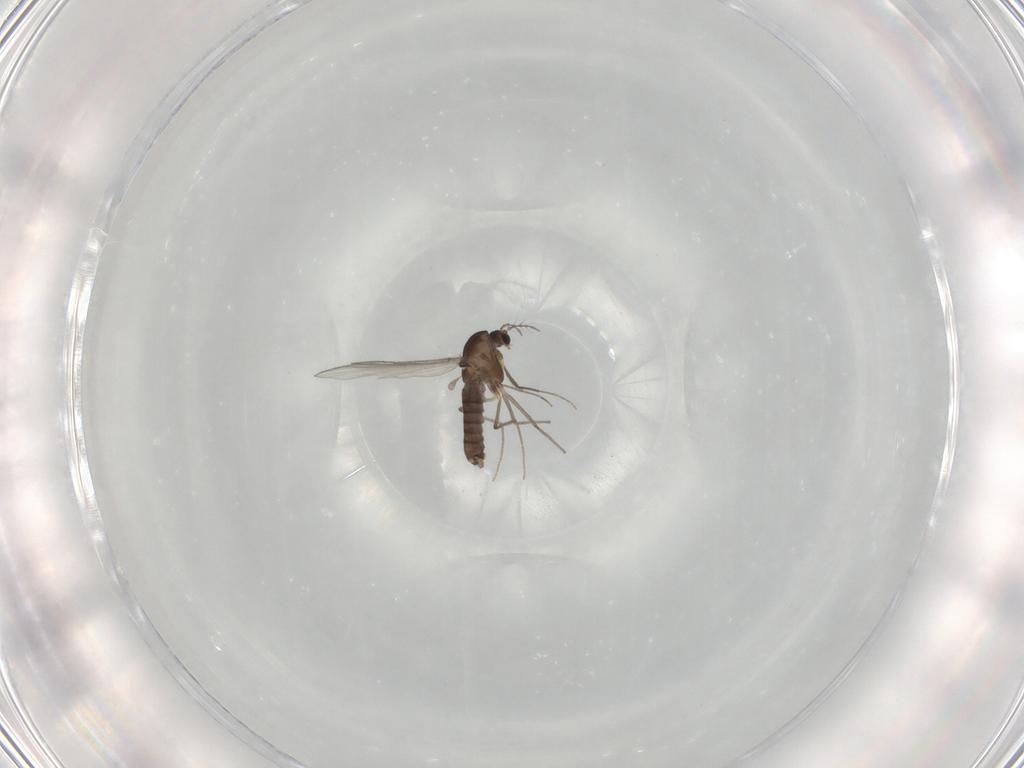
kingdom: Animalia
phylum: Arthropoda
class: Insecta
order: Diptera
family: Chironomidae
